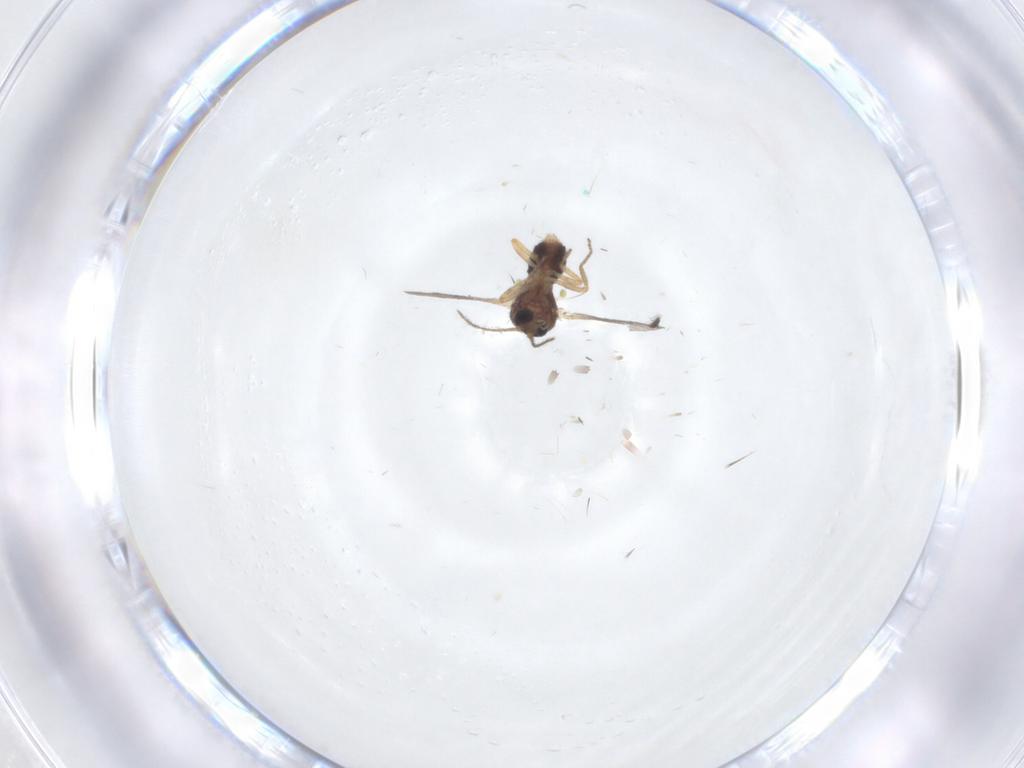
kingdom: Animalia
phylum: Arthropoda
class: Insecta
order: Diptera
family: Ceratopogonidae
